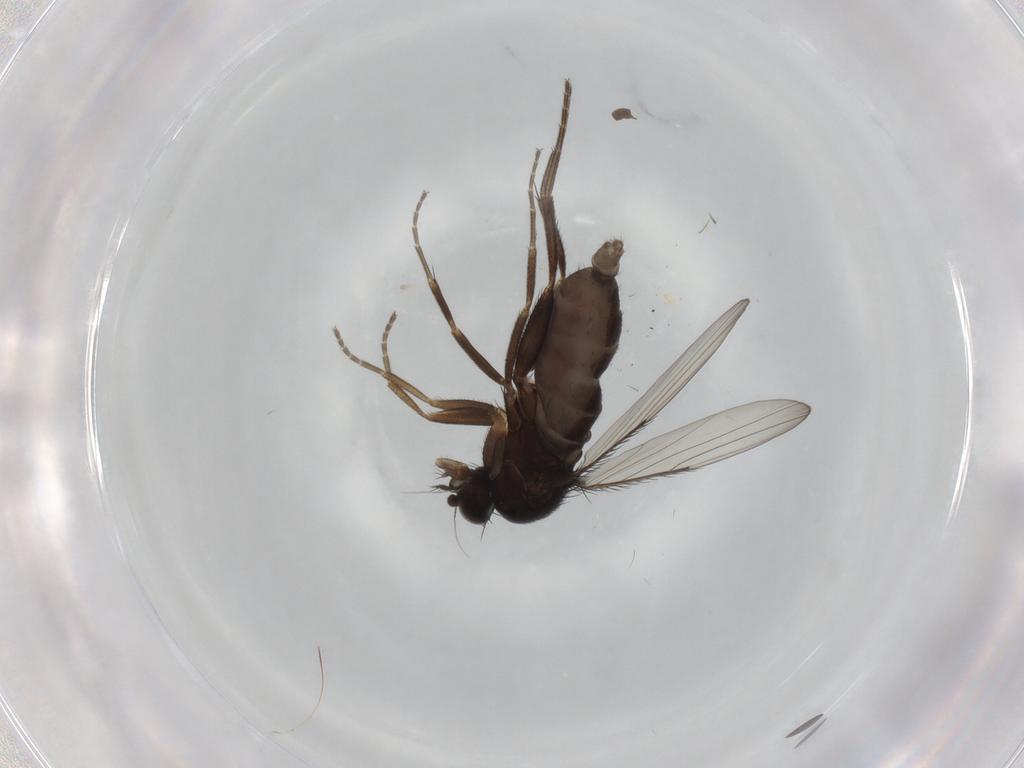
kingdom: Animalia
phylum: Arthropoda
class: Insecta
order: Diptera
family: Phoridae
